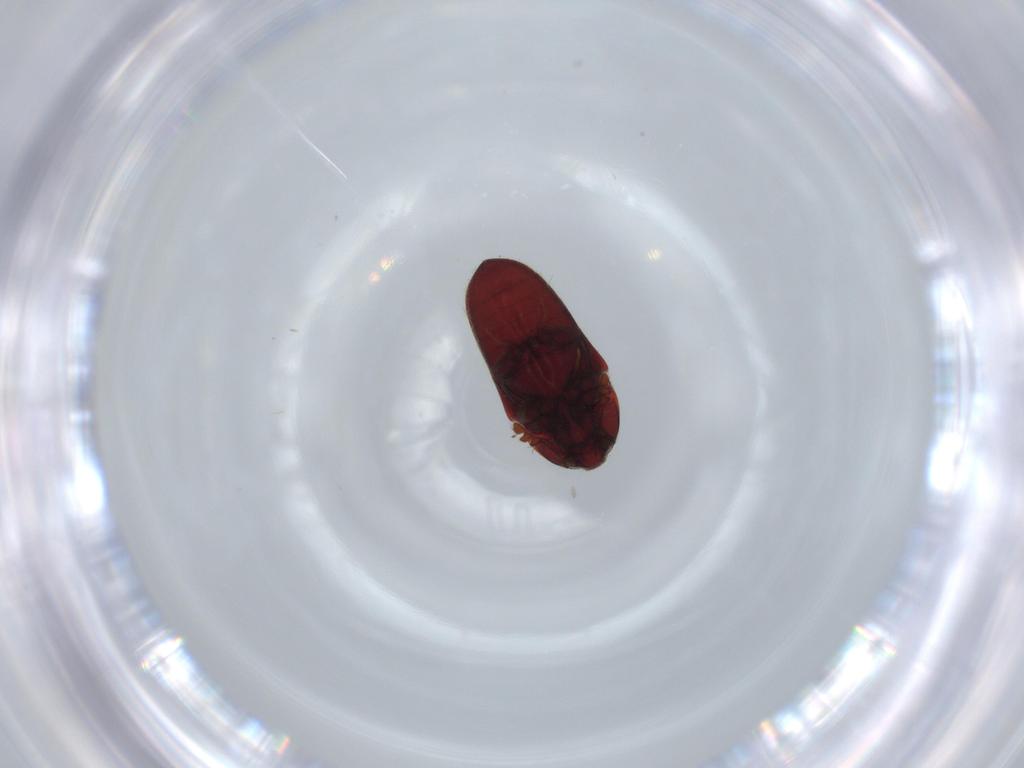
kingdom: Animalia
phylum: Arthropoda
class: Insecta
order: Coleoptera
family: Throscidae
